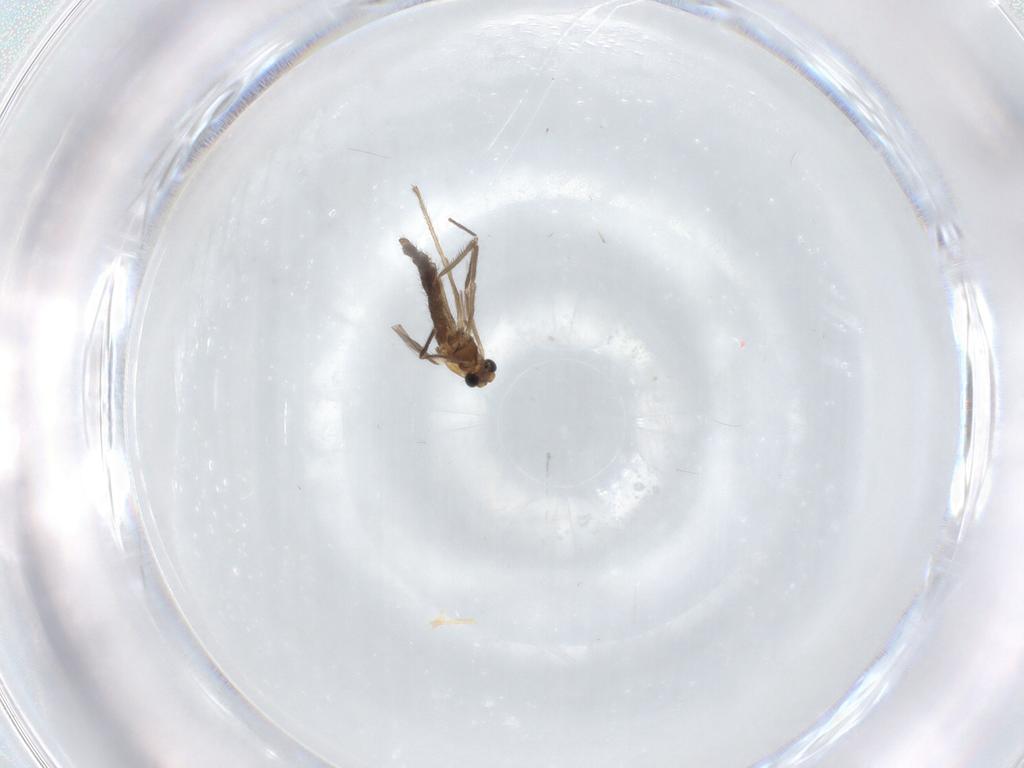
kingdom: Animalia
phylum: Arthropoda
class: Insecta
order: Diptera
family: Chironomidae
